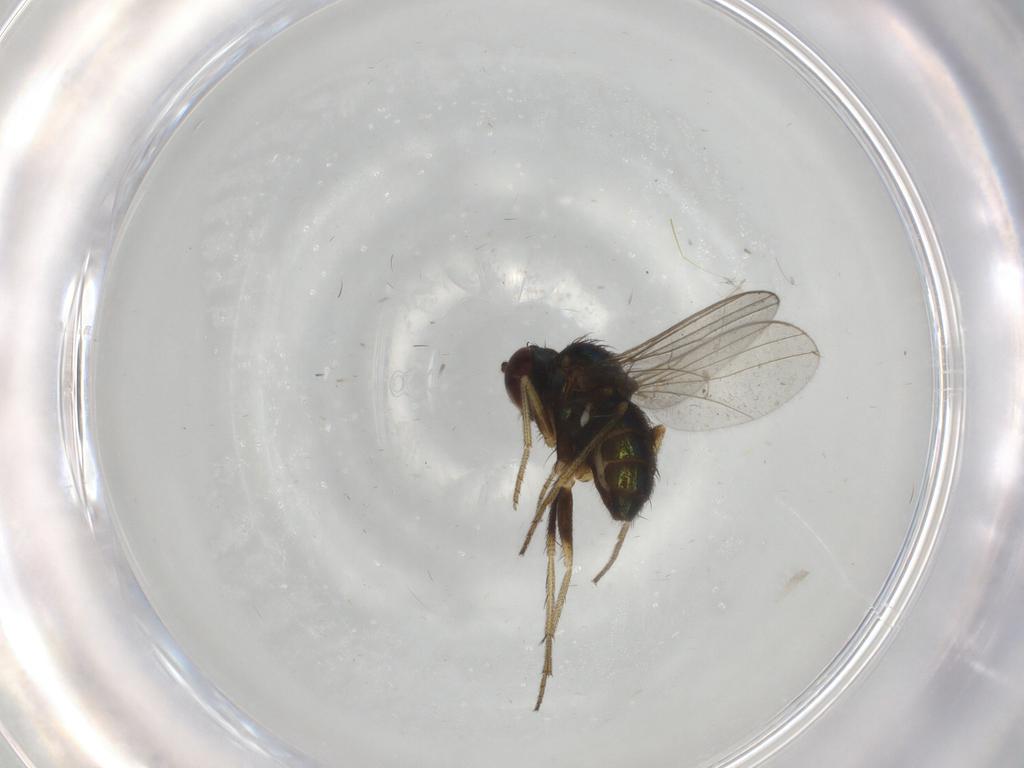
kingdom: Animalia
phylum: Arthropoda
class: Insecta
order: Diptera
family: Dolichopodidae
